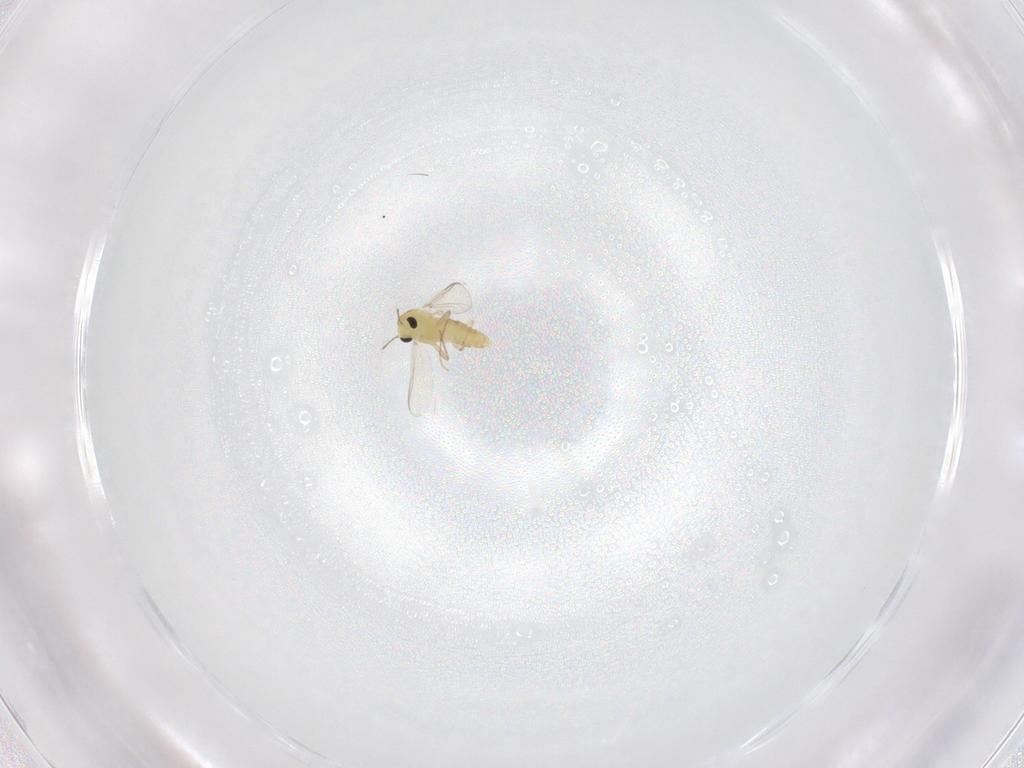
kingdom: Animalia
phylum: Arthropoda
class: Insecta
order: Diptera
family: Chironomidae
